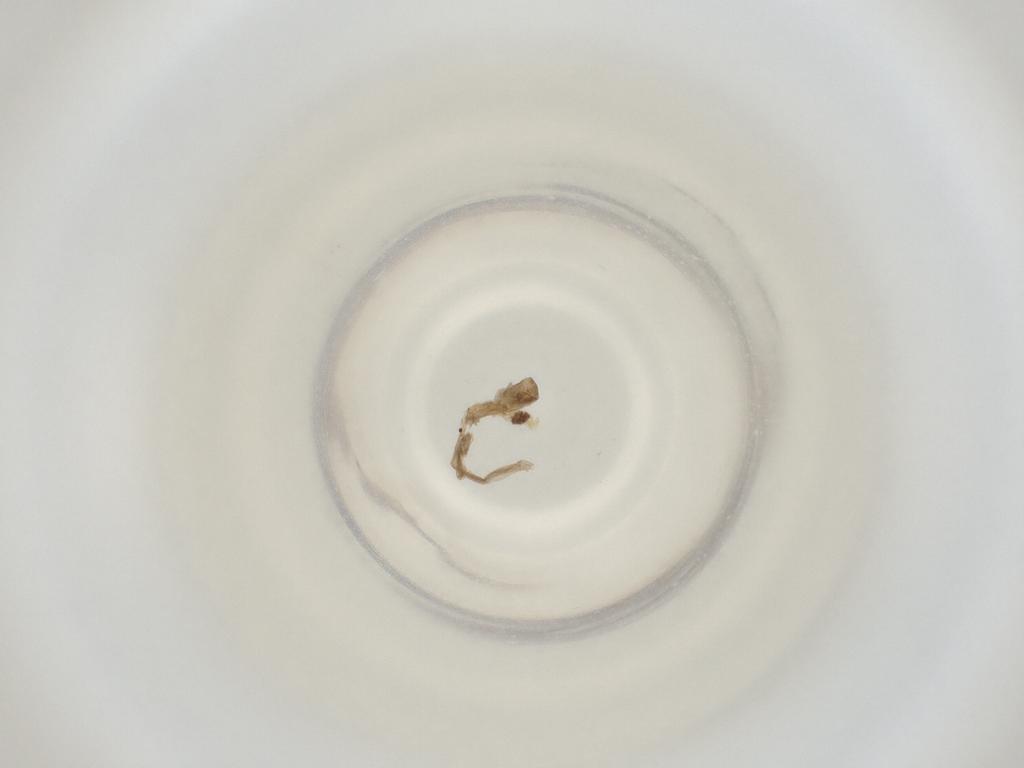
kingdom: Animalia
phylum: Arthropoda
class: Insecta
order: Diptera
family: Cecidomyiidae
